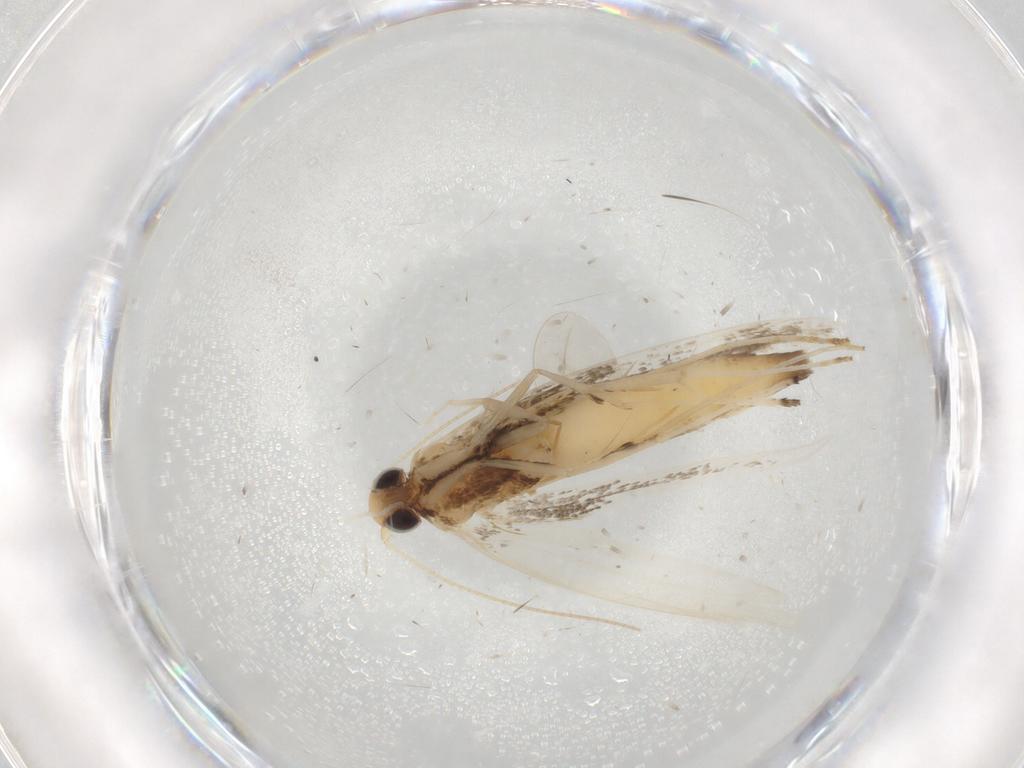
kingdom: Animalia
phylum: Arthropoda
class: Insecta
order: Lepidoptera
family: Gracillariidae
